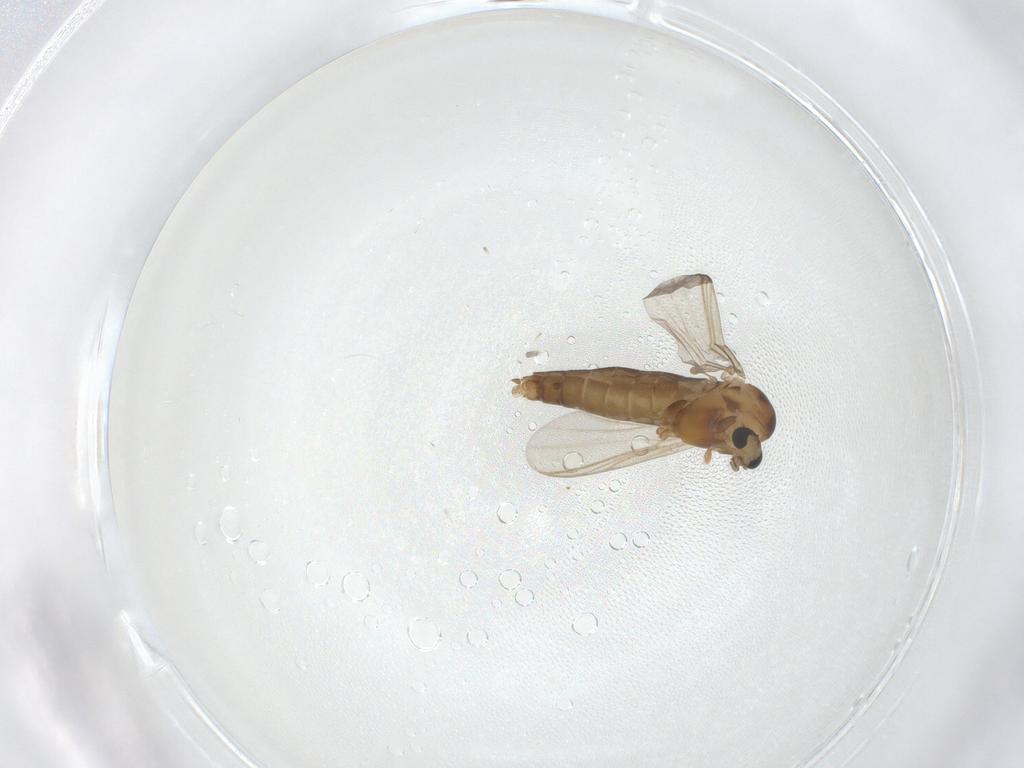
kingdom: Animalia
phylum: Arthropoda
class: Insecta
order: Diptera
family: Chironomidae
